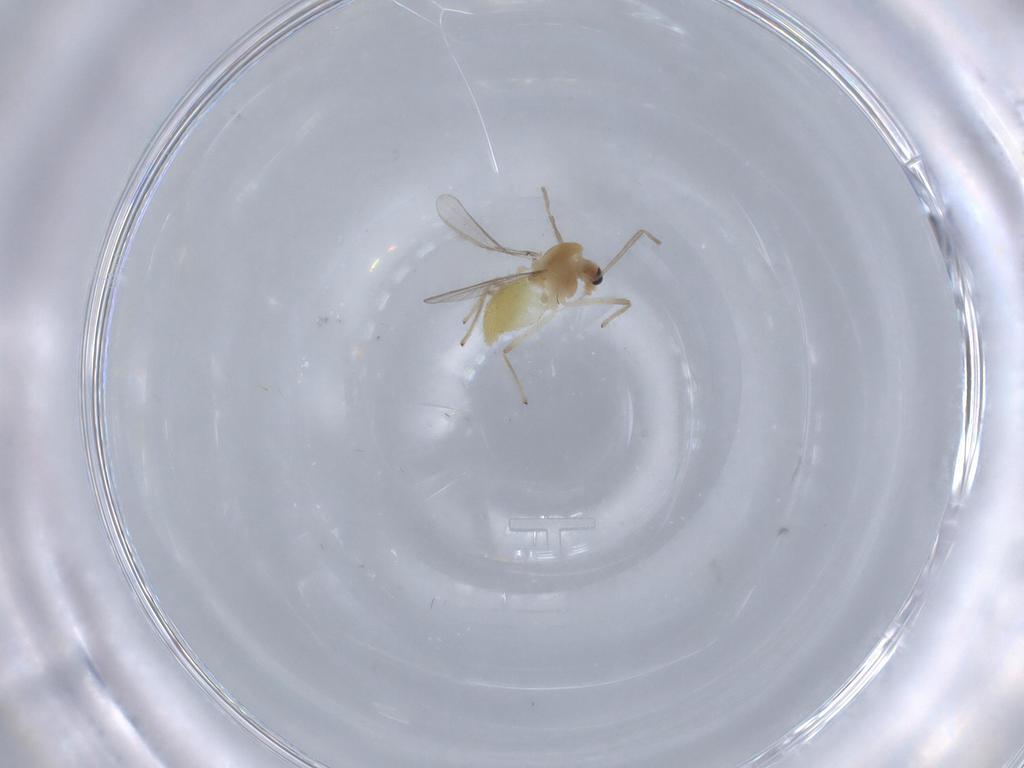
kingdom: Animalia
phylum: Arthropoda
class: Insecta
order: Diptera
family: Chironomidae
